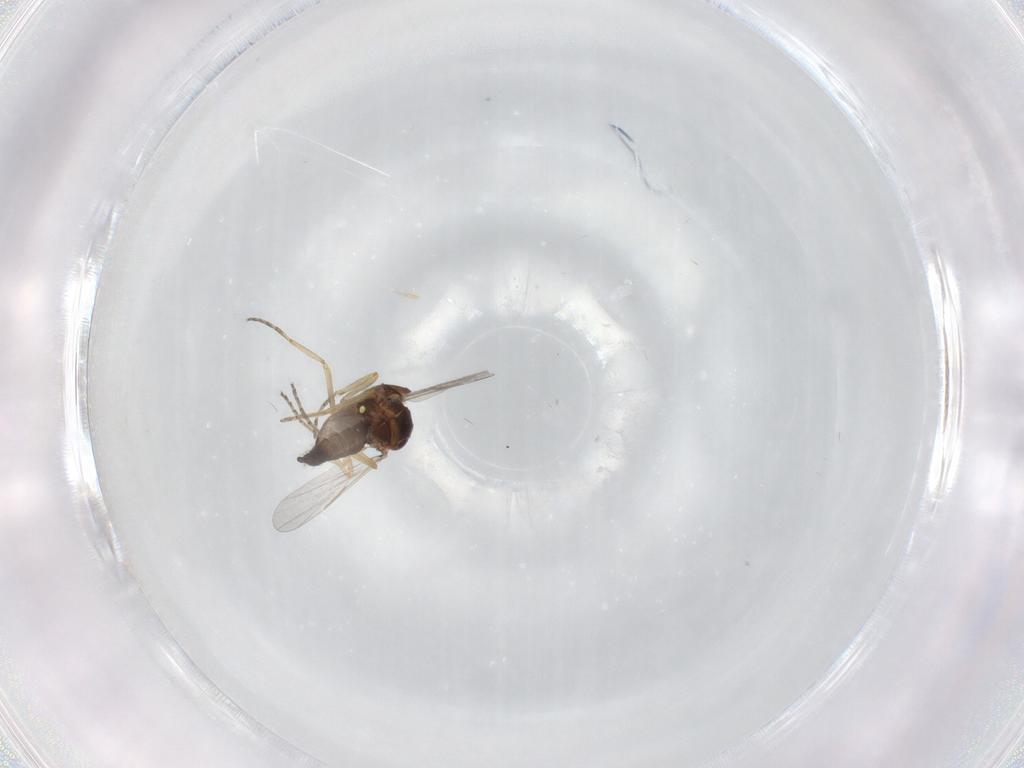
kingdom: Animalia
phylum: Arthropoda
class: Insecta
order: Diptera
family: Ceratopogonidae
